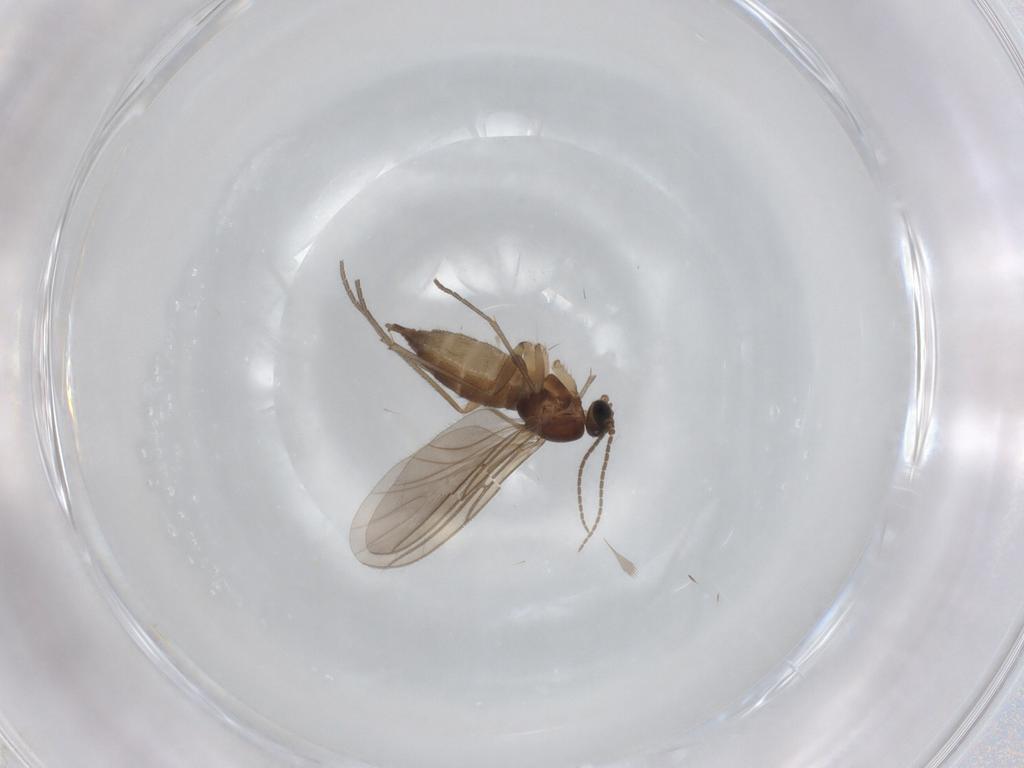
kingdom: Animalia
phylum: Arthropoda
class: Insecta
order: Diptera
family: Sciaridae
